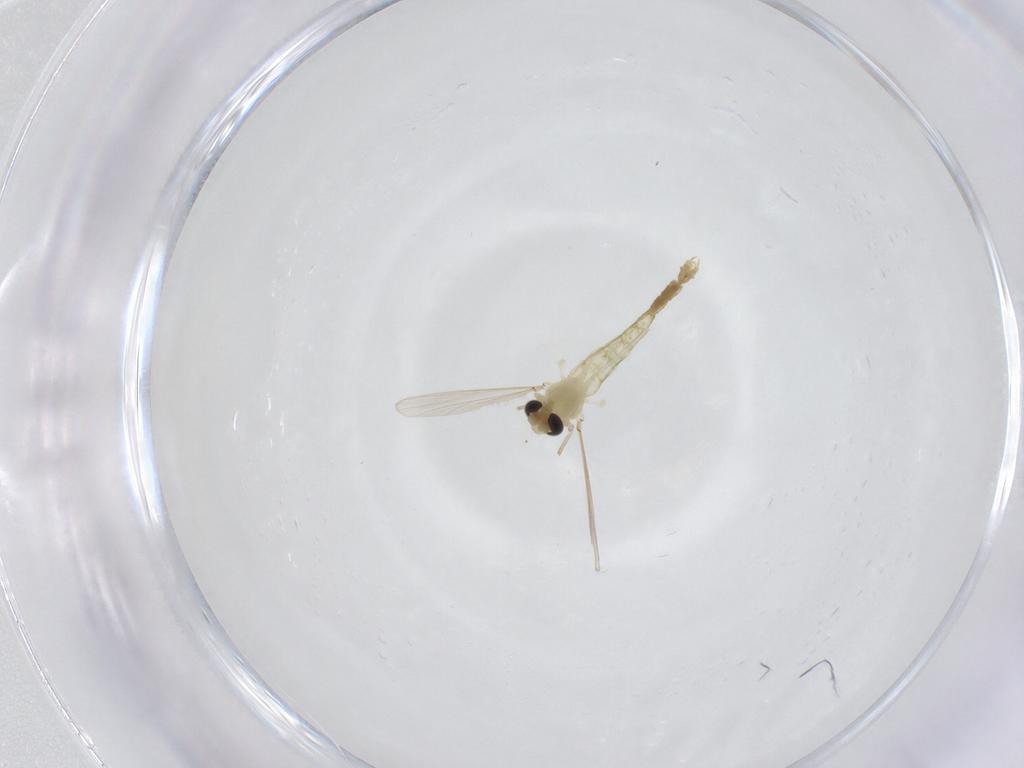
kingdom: Animalia
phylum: Arthropoda
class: Insecta
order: Diptera
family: Chironomidae
